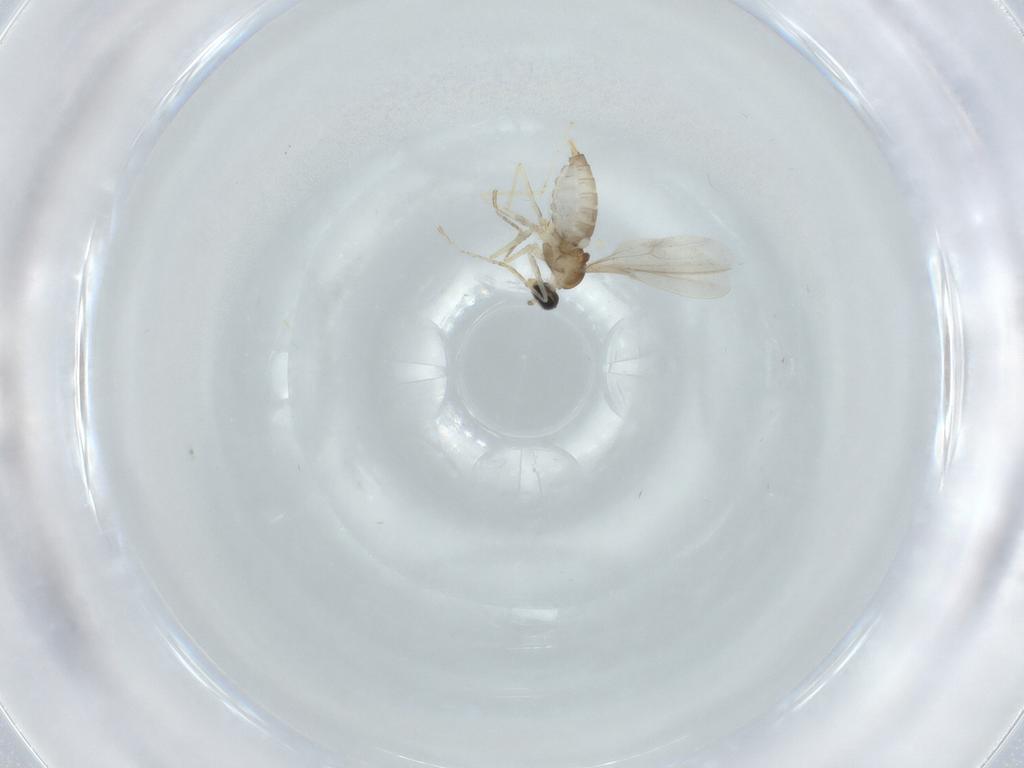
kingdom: Animalia
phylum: Arthropoda
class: Insecta
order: Diptera
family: Cecidomyiidae
